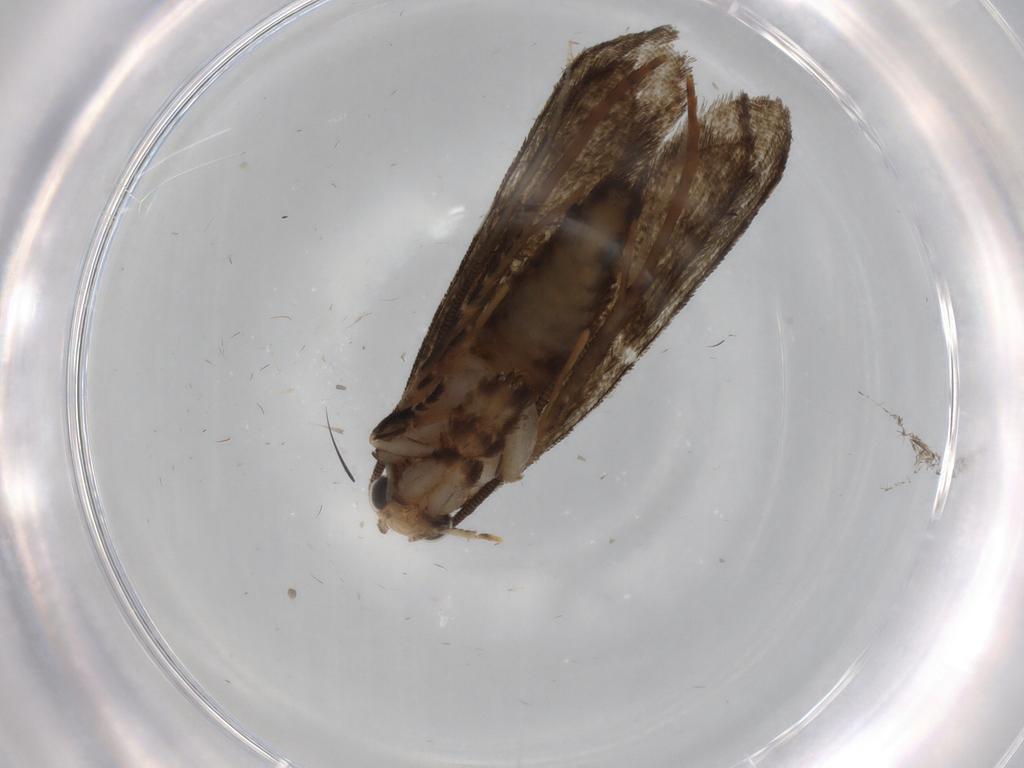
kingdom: Animalia
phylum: Arthropoda
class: Insecta
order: Lepidoptera
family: Tineidae
